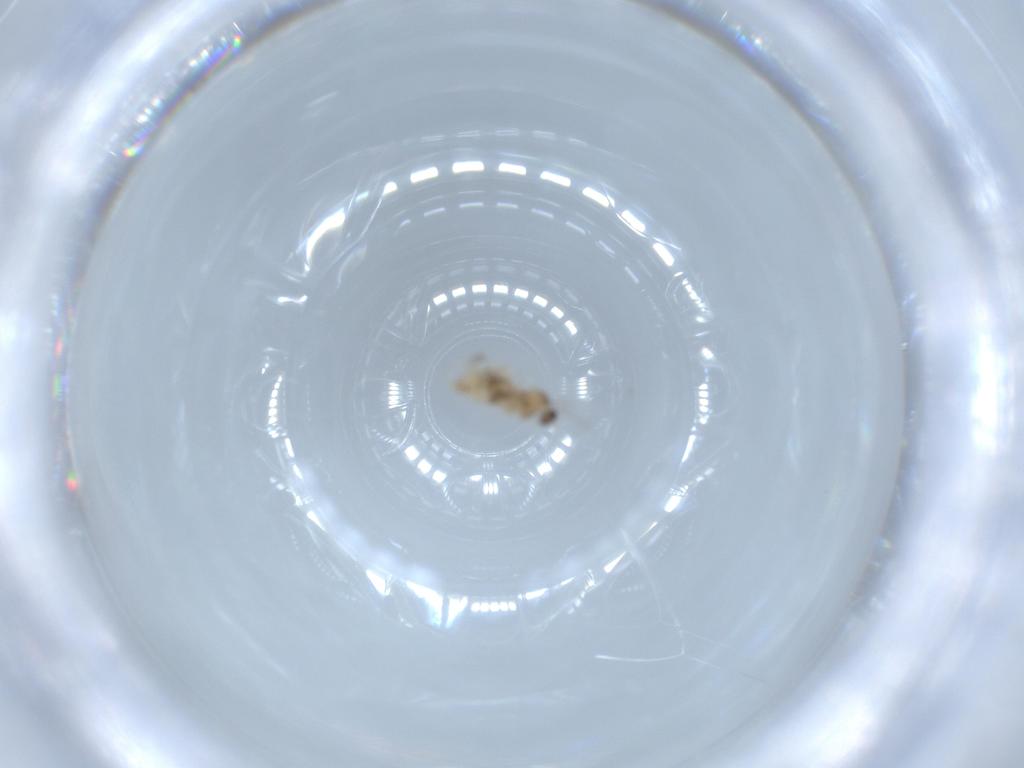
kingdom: Animalia
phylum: Arthropoda
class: Insecta
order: Diptera
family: Cecidomyiidae
